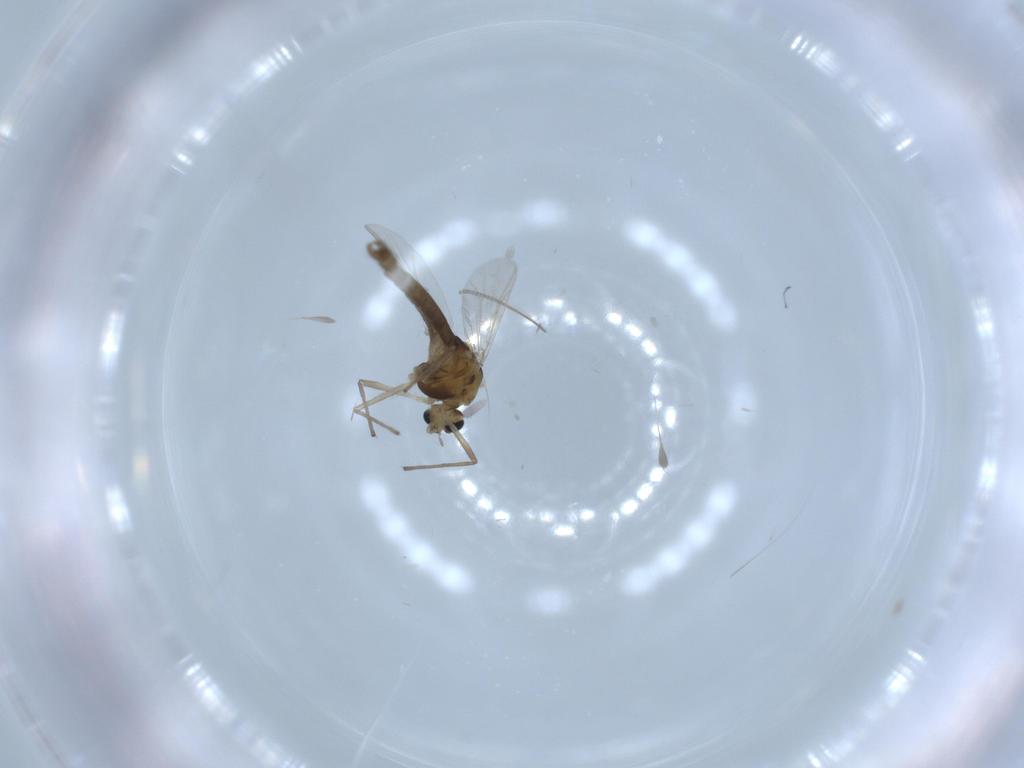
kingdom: Animalia
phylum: Arthropoda
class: Insecta
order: Diptera
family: Chironomidae
